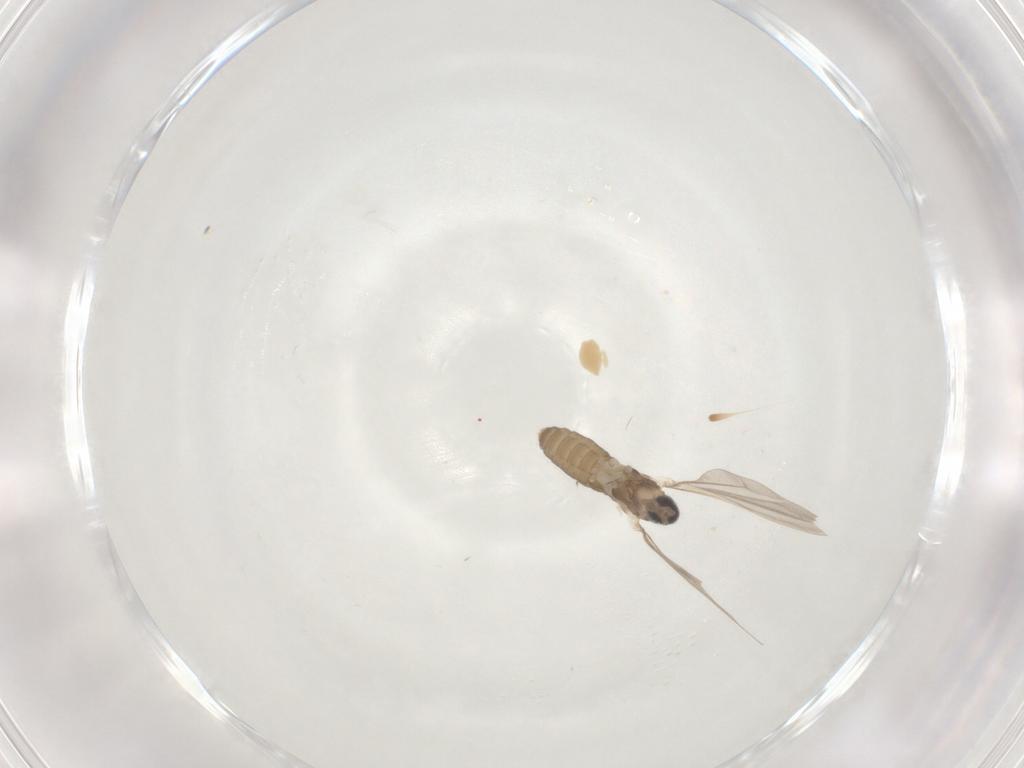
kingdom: Animalia
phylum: Arthropoda
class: Insecta
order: Diptera
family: Cecidomyiidae
